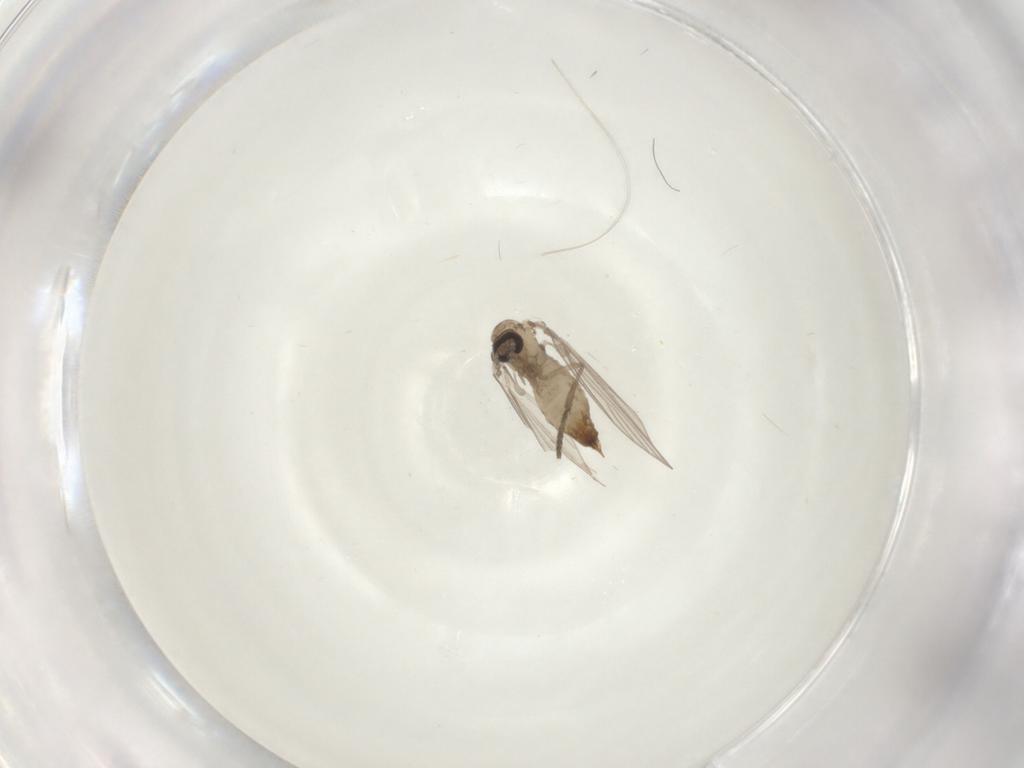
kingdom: Animalia
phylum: Arthropoda
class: Insecta
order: Diptera
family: Psychodidae
